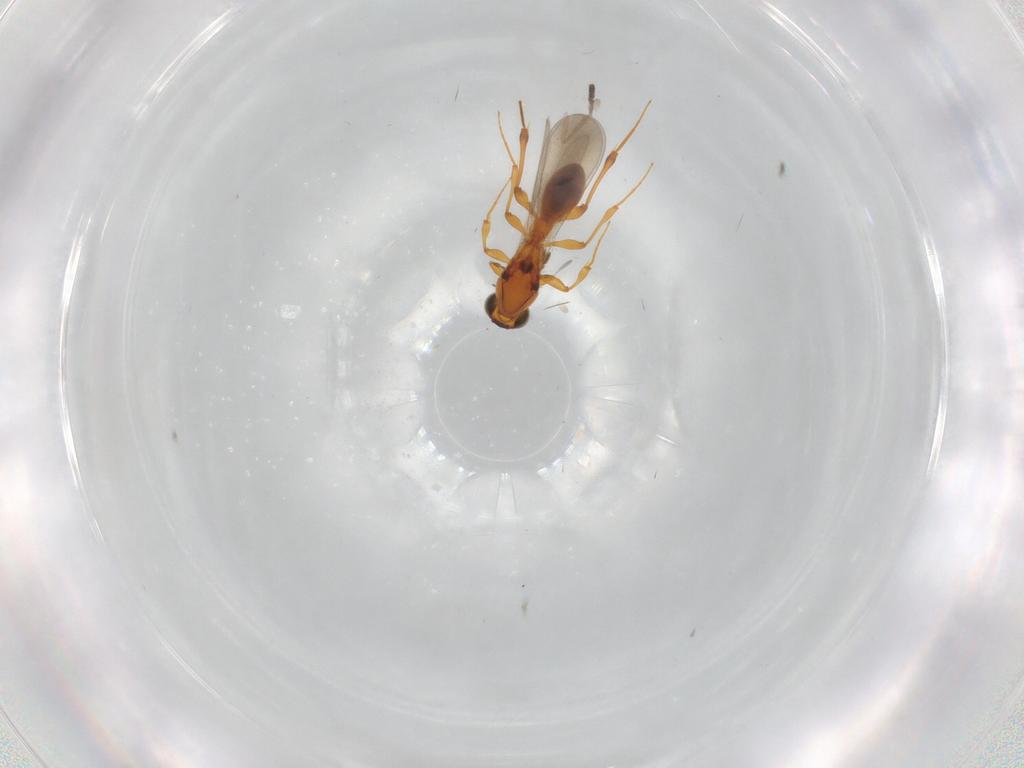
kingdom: Animalia
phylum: Arthropoda
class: Insecta
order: Hymenoptera
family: Platygastridae
